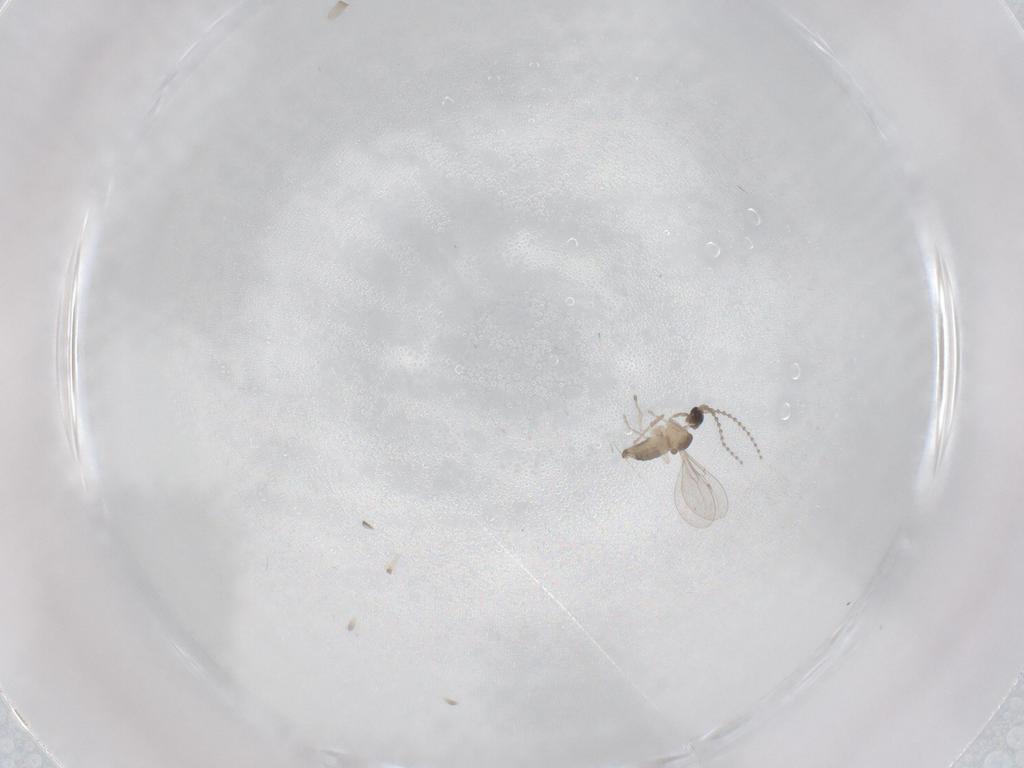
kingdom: Animalia
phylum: Arthropoda
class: Insecta
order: Diptera
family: Cecidomyiidae
